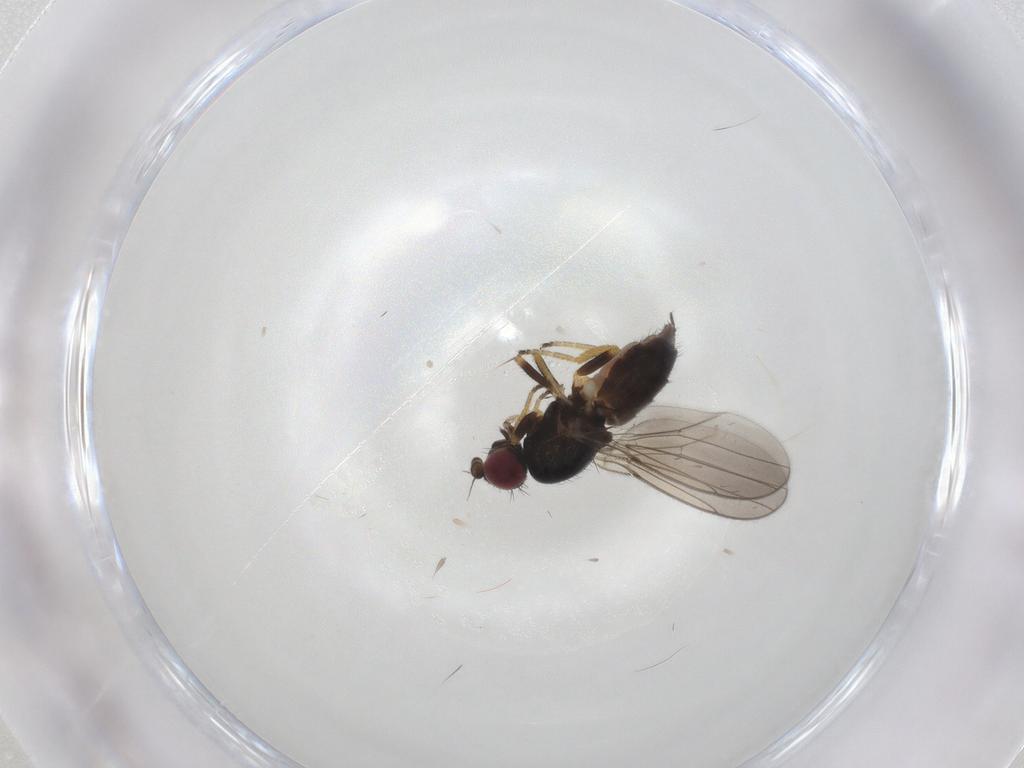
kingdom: Animalia
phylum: Arthropoda
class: Insecta
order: Diptera
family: Chloropidae
